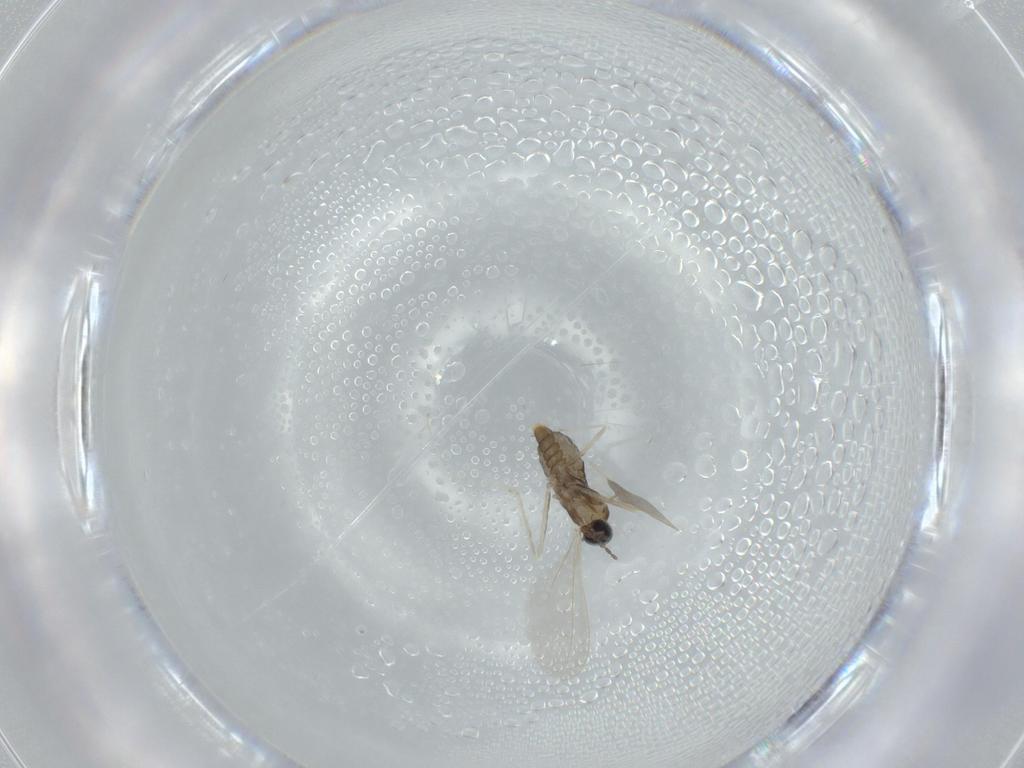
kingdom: Animalia
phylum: Arthropoda
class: Insecta
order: Diptera
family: Cecidomyiidae
